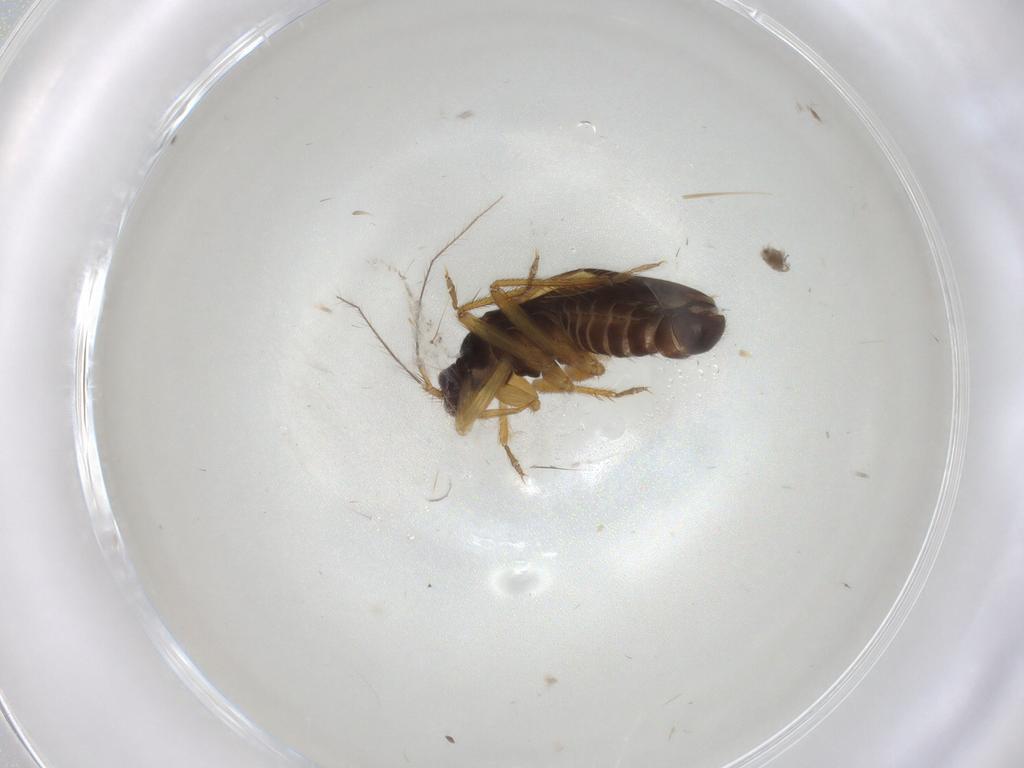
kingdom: Animalia
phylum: Arthropoda
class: Insecta
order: Hemiptera
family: Ceratocombidae
